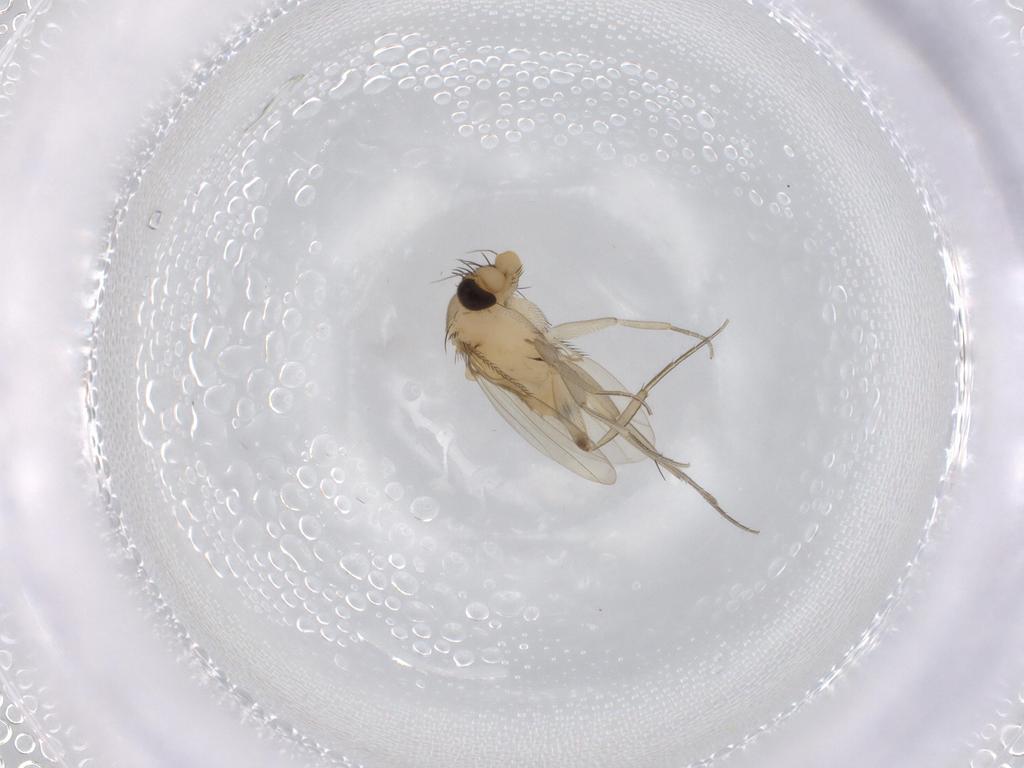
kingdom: Animalia
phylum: Arthropoda
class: Insecta
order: Diptera
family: Phoridae
